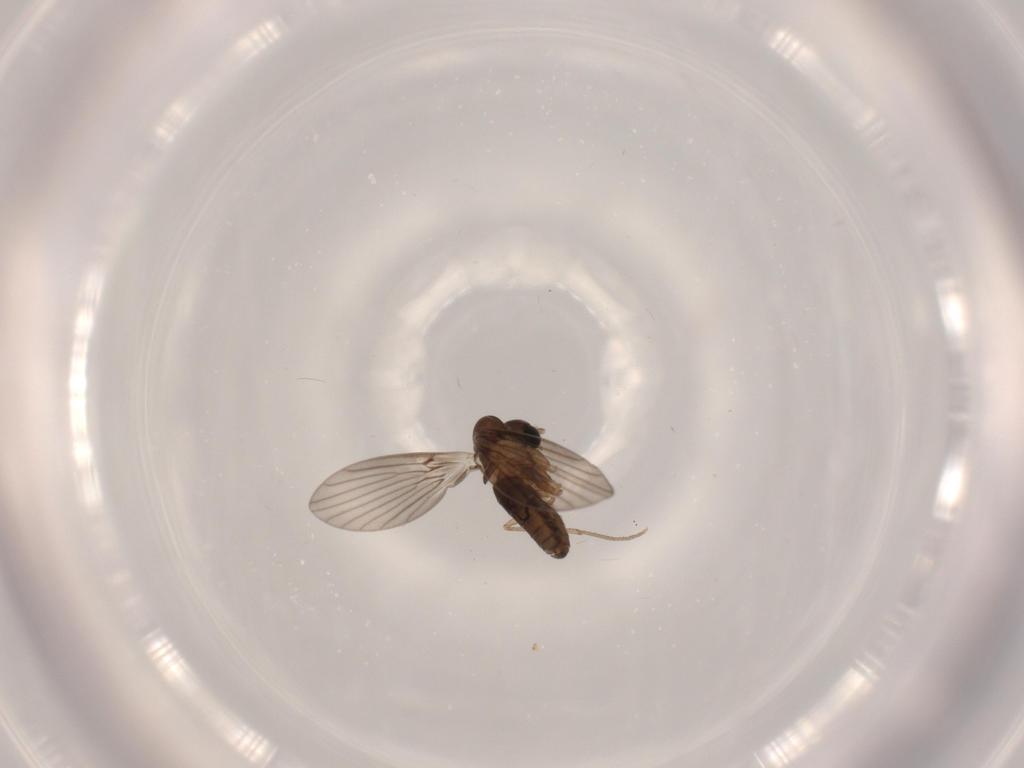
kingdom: Animalia
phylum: Arthropoda
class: Insecta
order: Diptera
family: Psychodidae
